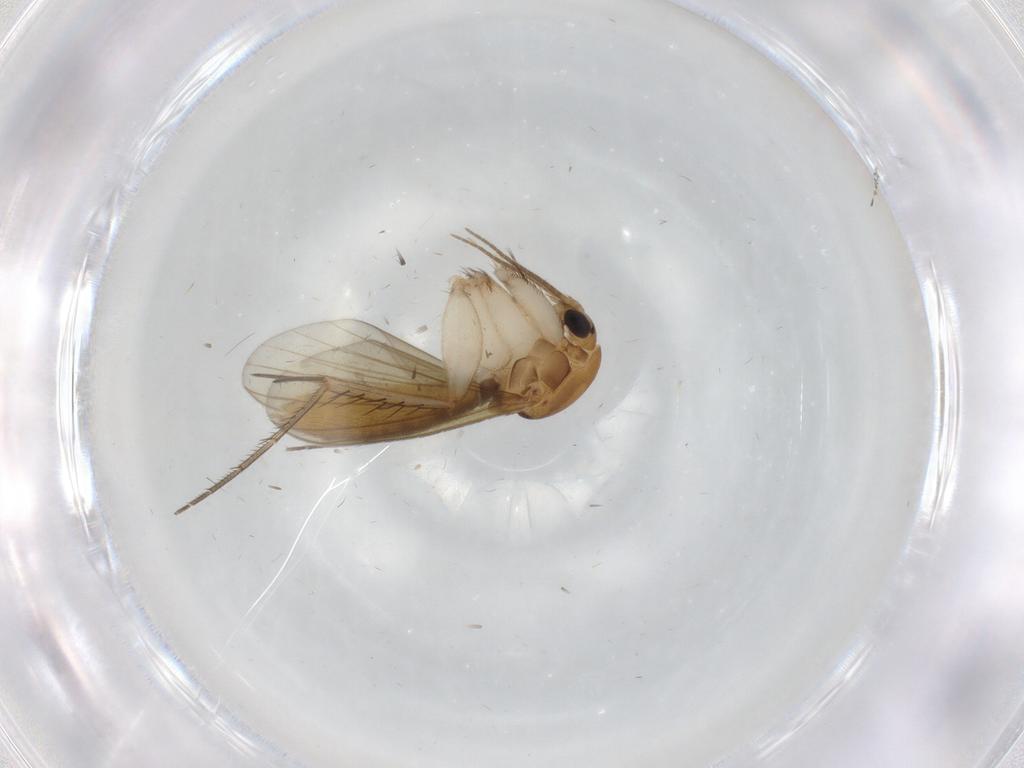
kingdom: Animalia
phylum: Arthropoda
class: Insecta
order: Diptera
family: Mycetophilidae
